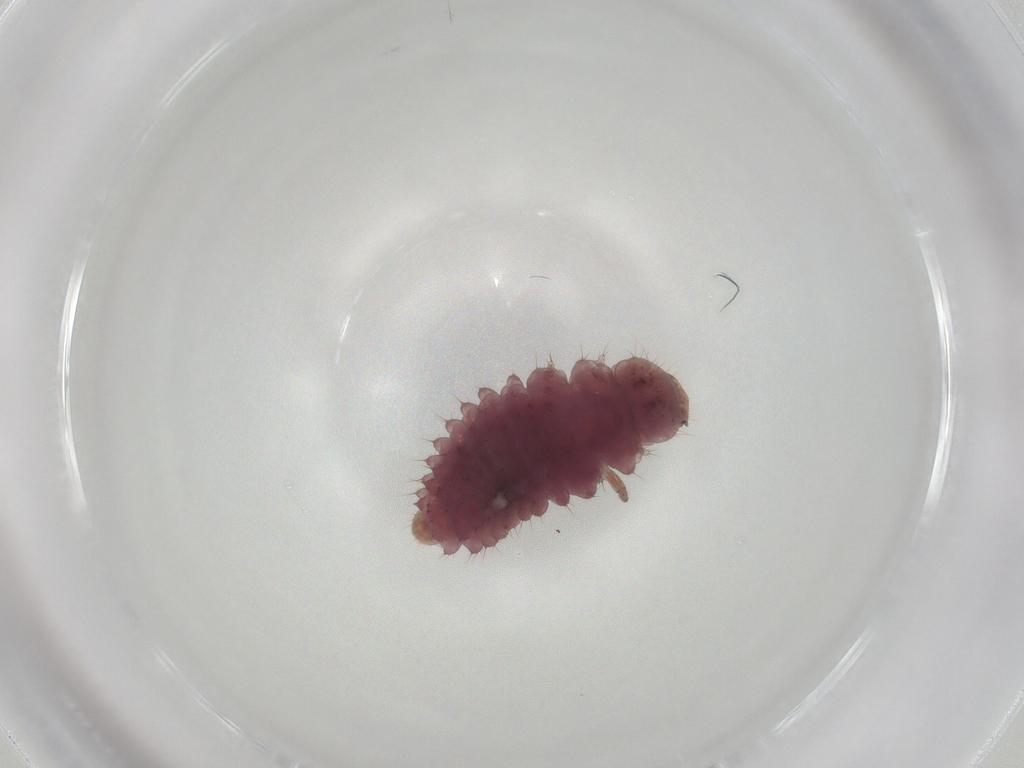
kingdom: Animalia
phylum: Arthropoda
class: Insecta
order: Coleoptera
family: Coccinellidae
